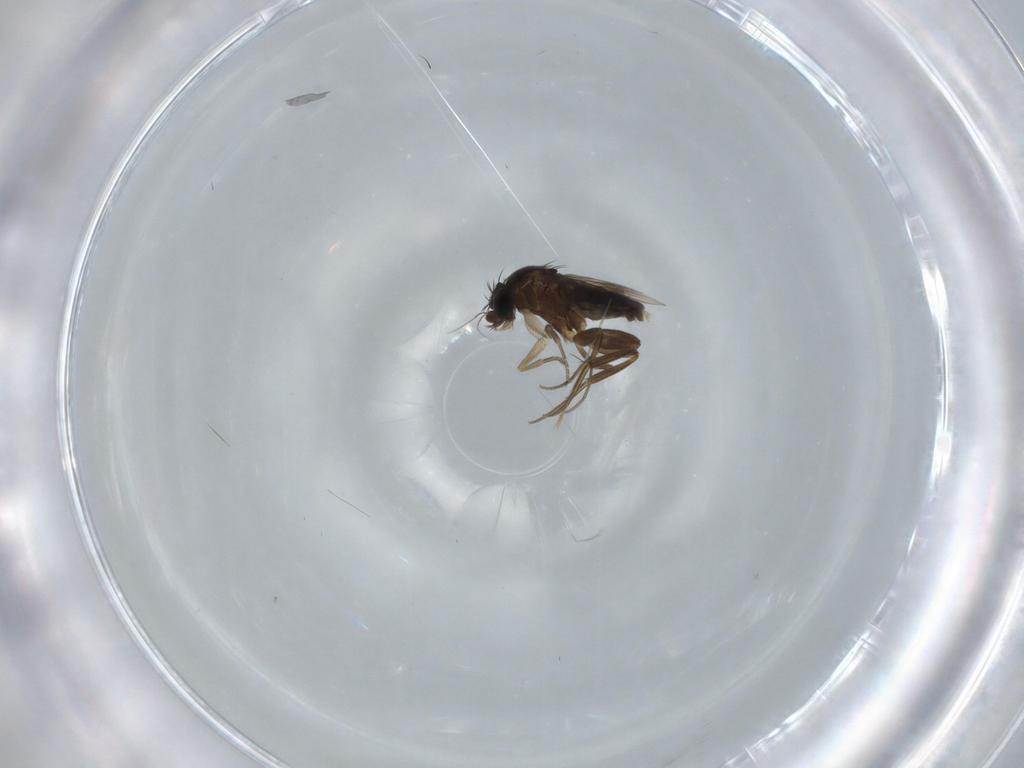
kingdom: Animalia
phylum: Arthropoda
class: Insecta
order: Diptera
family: Phoridae
